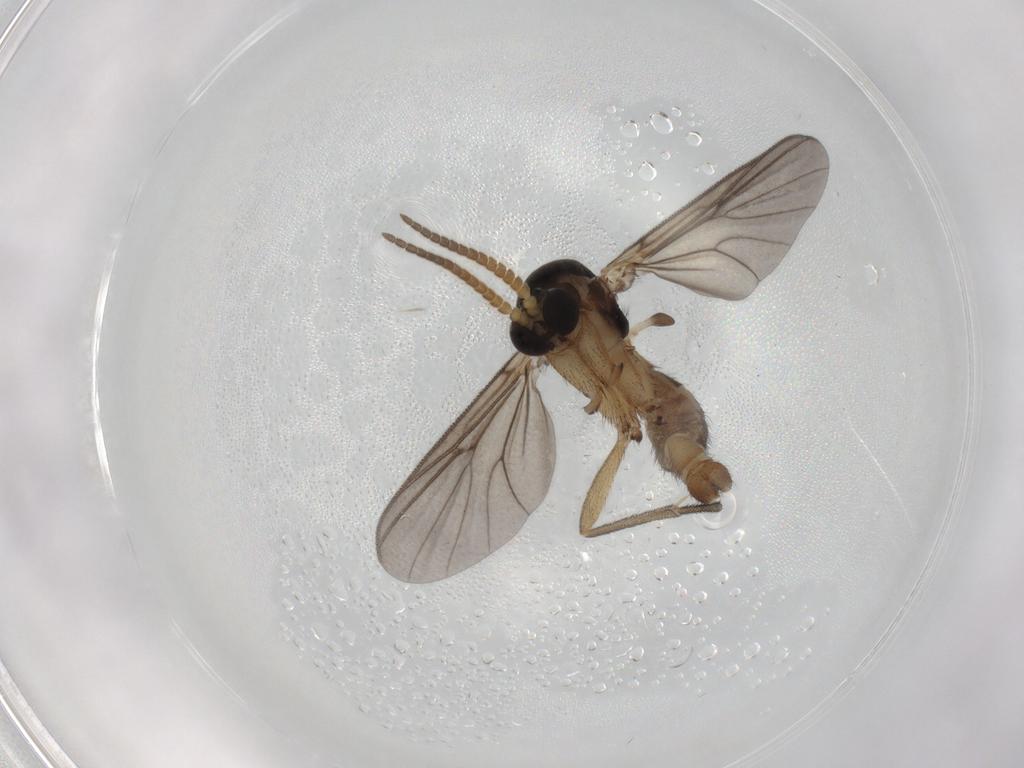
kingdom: Animalia
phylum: Arthropoda
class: Insecta
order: Diptera
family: Mycetophilidae
